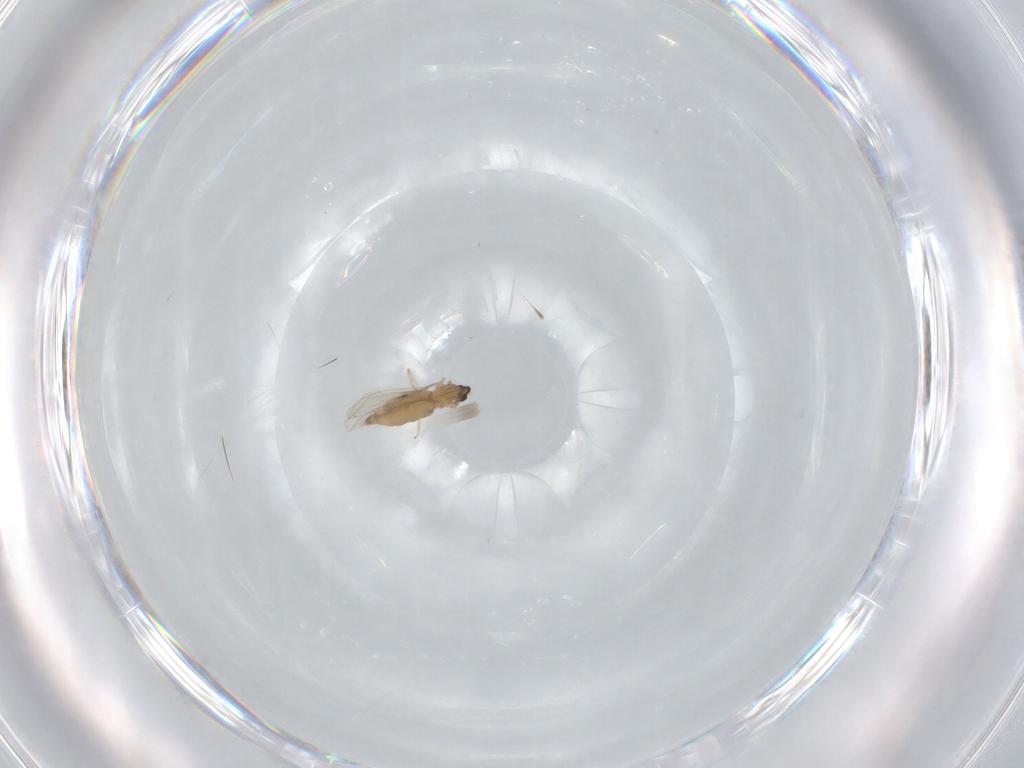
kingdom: Animalia
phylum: Arthropoda
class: Insecta
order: Diptera
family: Cecidomyiidae
